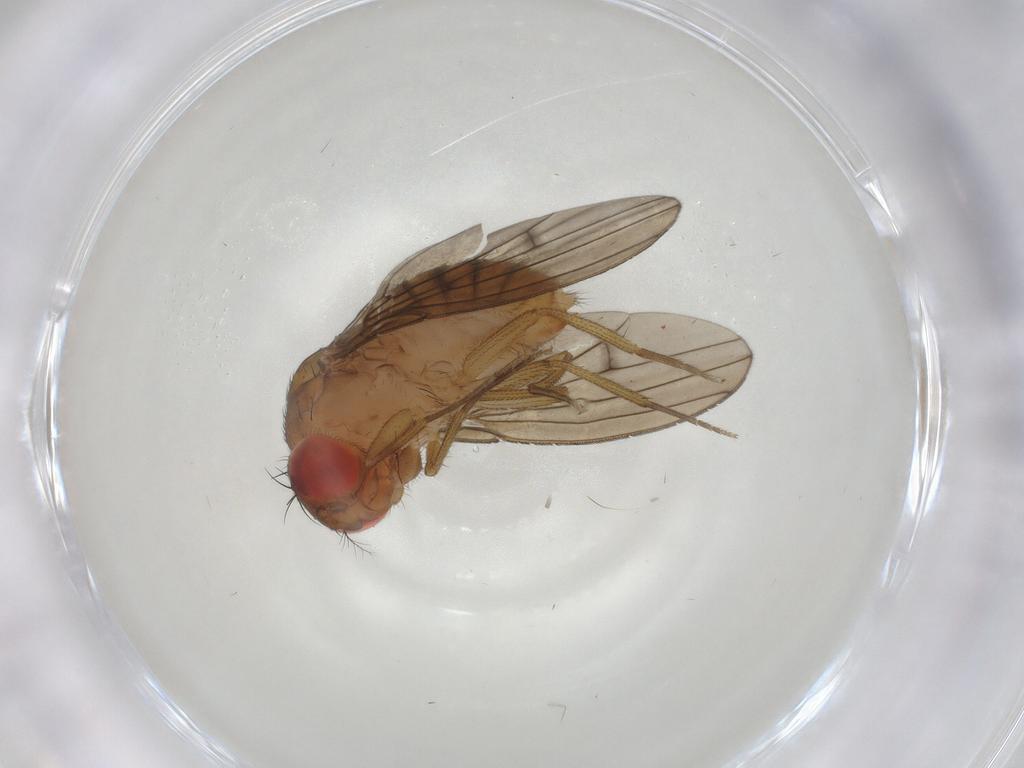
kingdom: Animalia
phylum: Arthropoda
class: Insecta
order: Diptera
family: Drosophilidae
